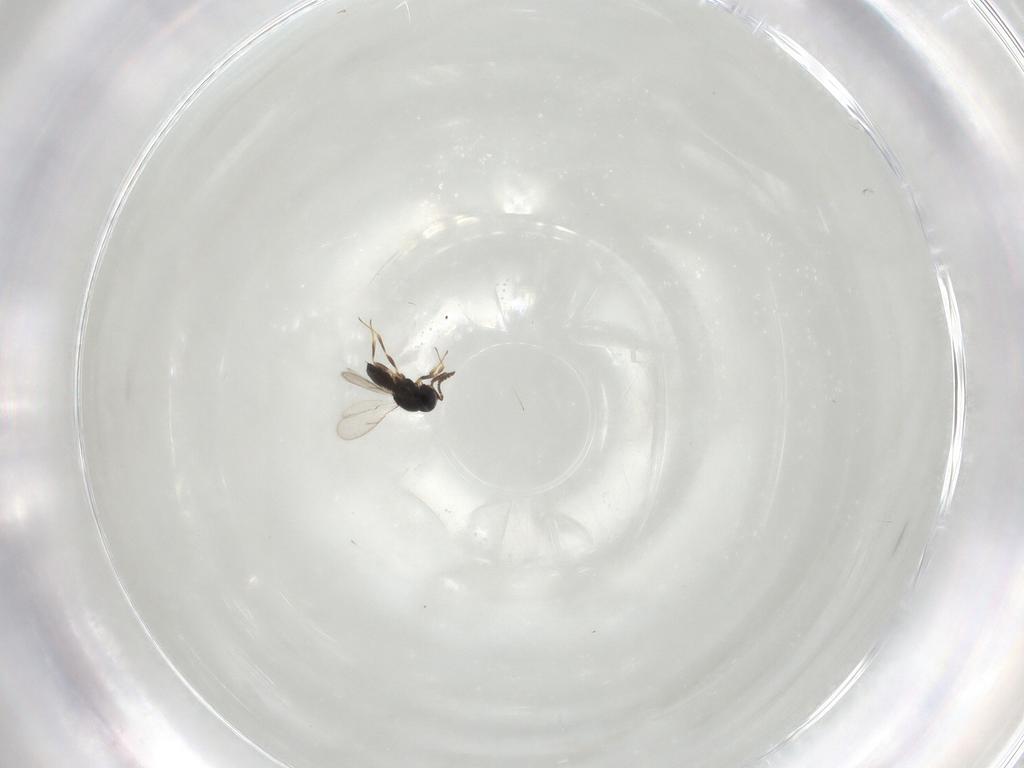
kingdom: Animalia
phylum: Arthropoda
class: Insecta
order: Hymenoptera
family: Scelionidae
